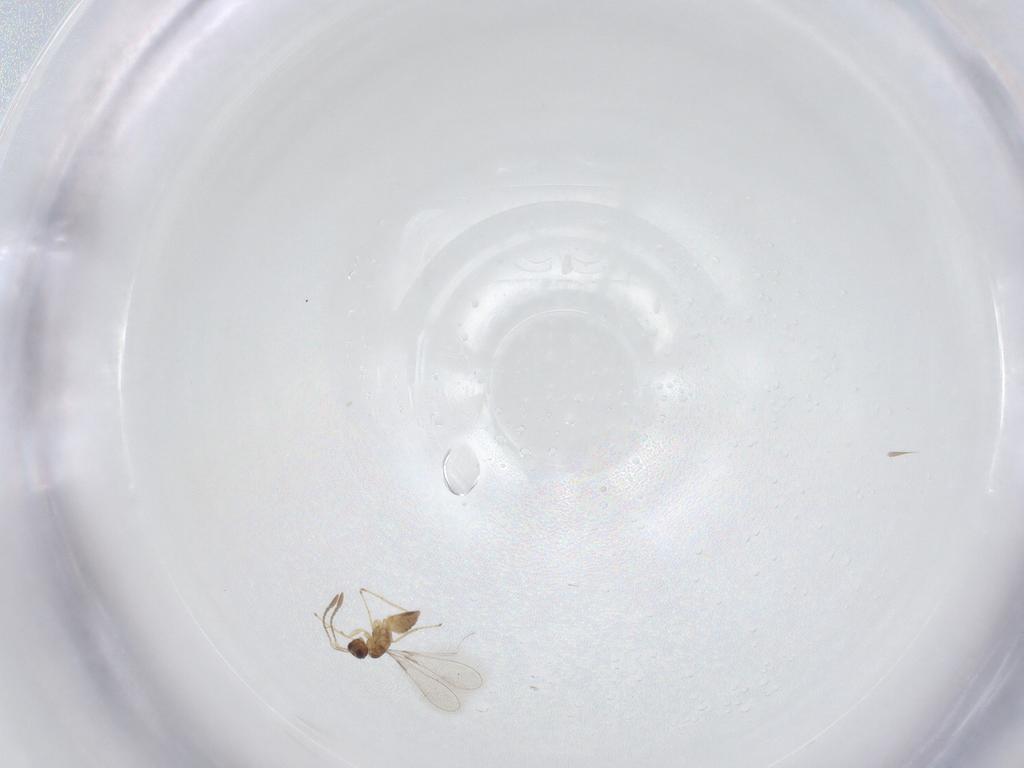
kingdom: Animalia
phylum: Arthropoda
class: Insecta
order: Hymenoptera
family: Mymaridae
